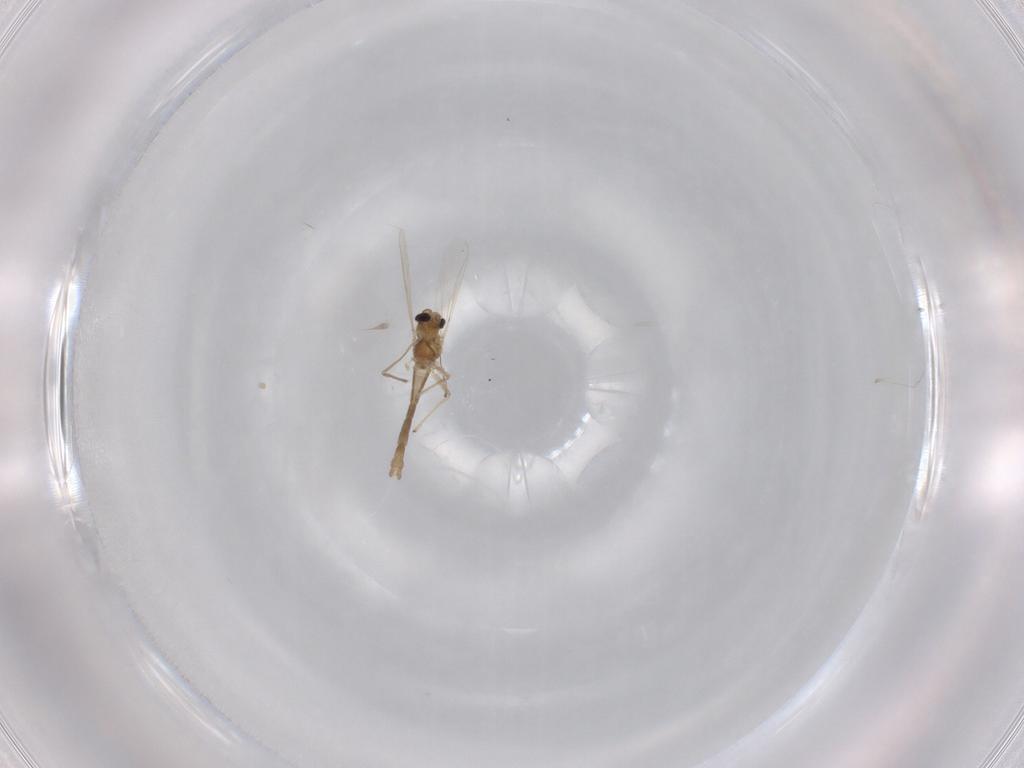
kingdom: Animalia
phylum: Arthropoda
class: Insecta
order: Diptera
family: Chironomidae
